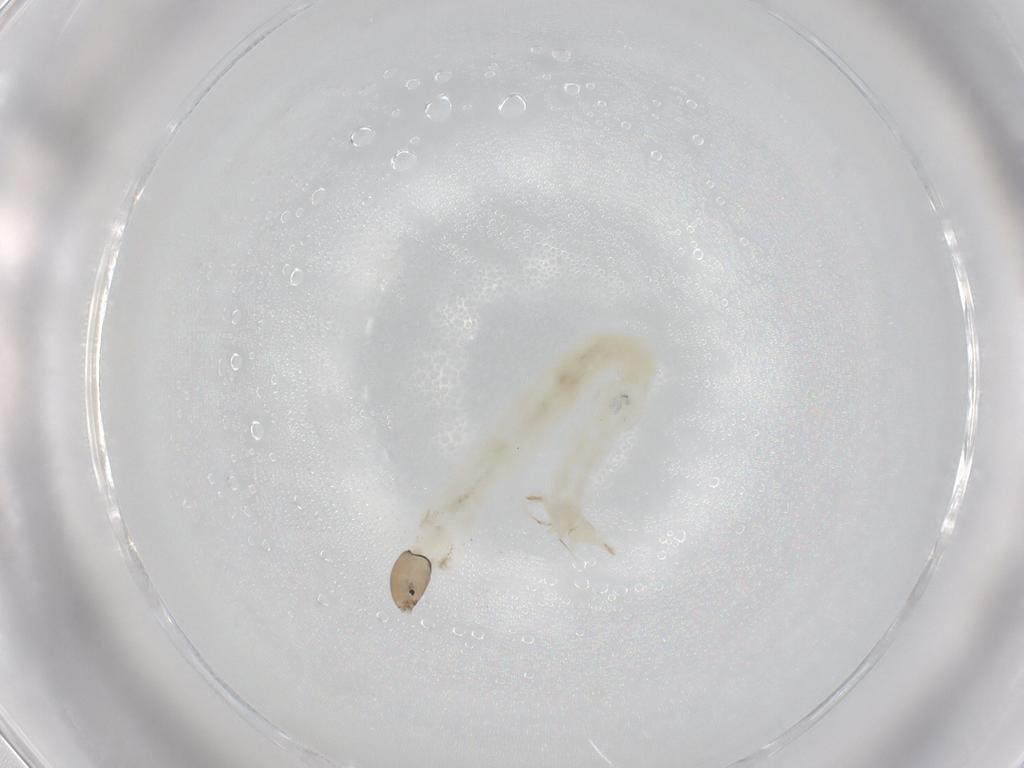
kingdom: Animalia
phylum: Arthropoda
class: Insecta
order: Diptera
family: Chironomidae
